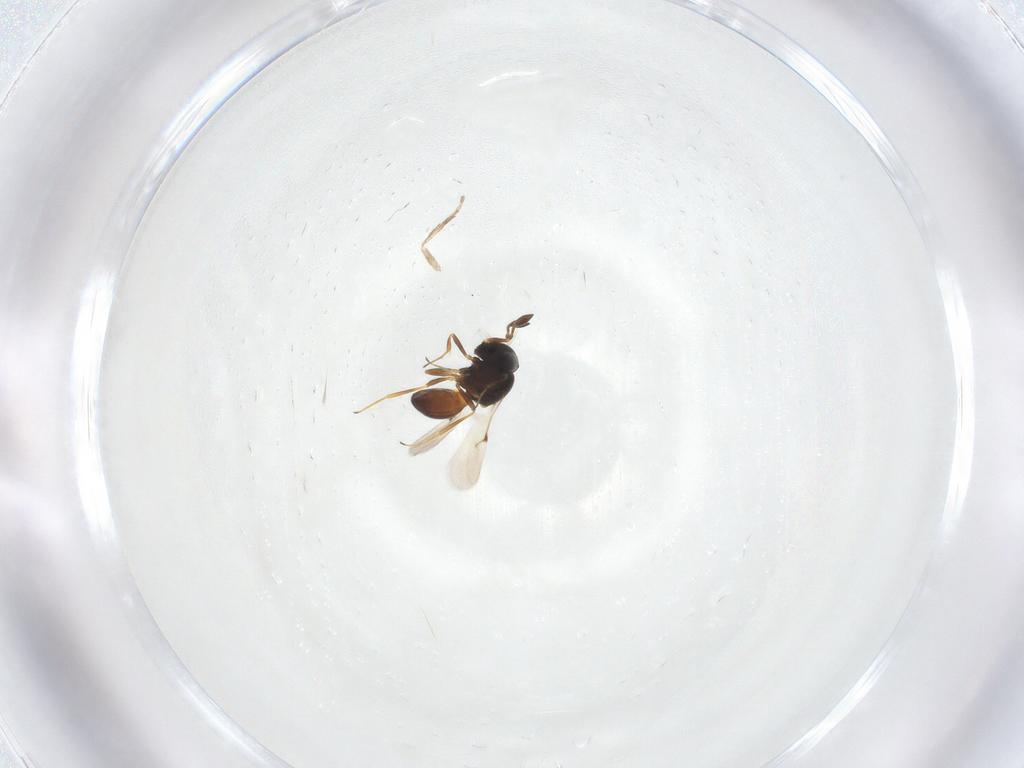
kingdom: Animalia
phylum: Arthropoda
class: Insecta
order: Hymenoptera
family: Scelionidae
